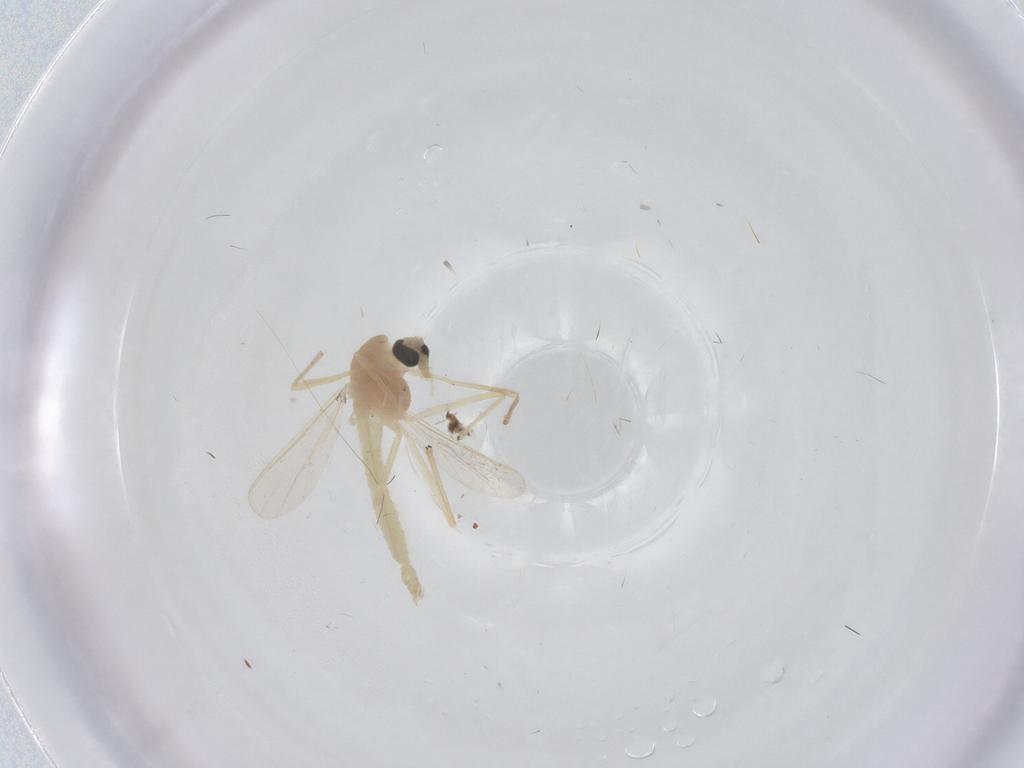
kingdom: Animalia
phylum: Arthropoda
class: Insecta
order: Diptera
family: Chironomidae
